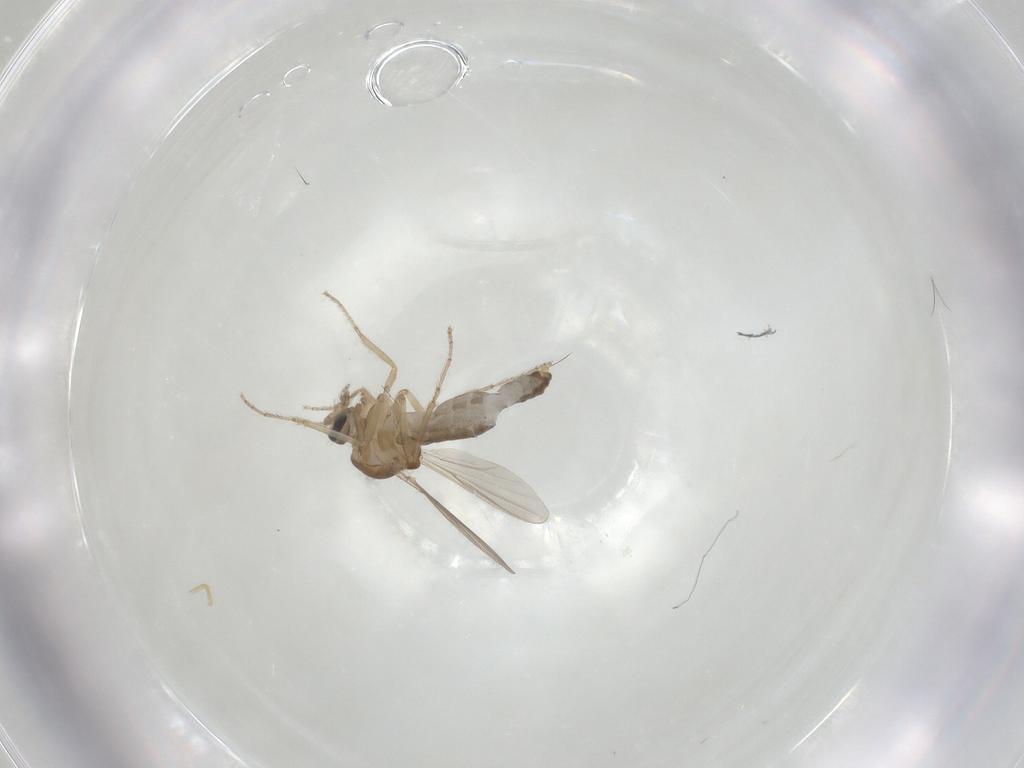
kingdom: Animalia
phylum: Arthropoda
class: Insecta
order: Diptera
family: Ceratopogonidae
